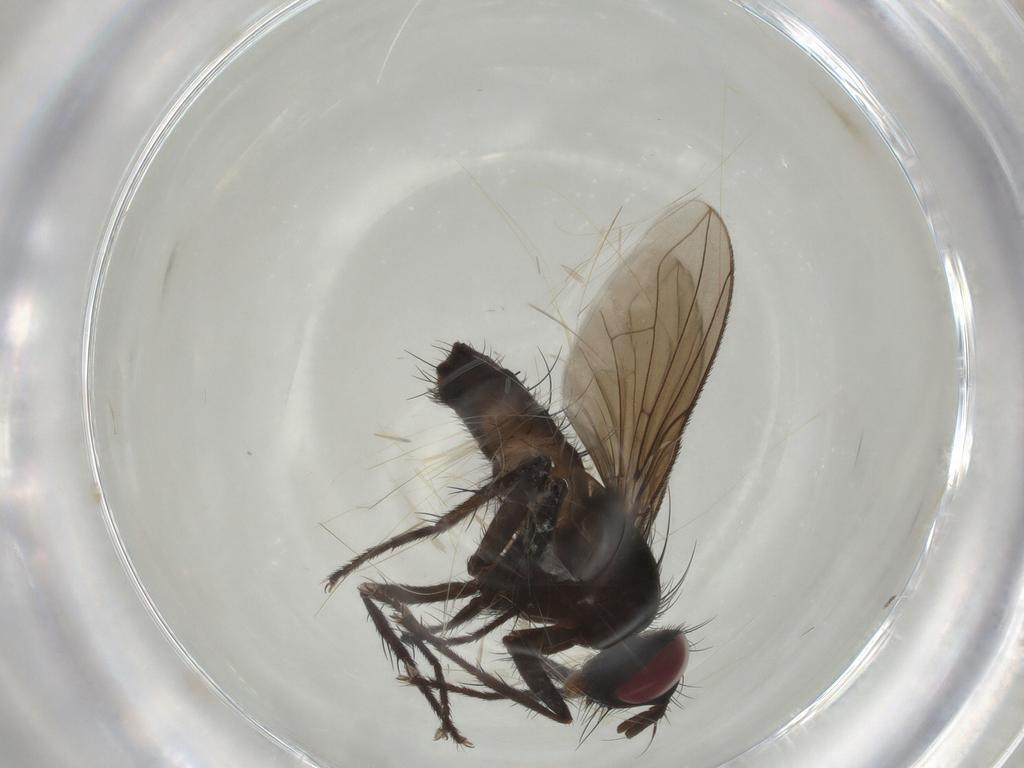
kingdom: Animalia
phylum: Arthropoda
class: Insecta
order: Diptera
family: Tachinidae
